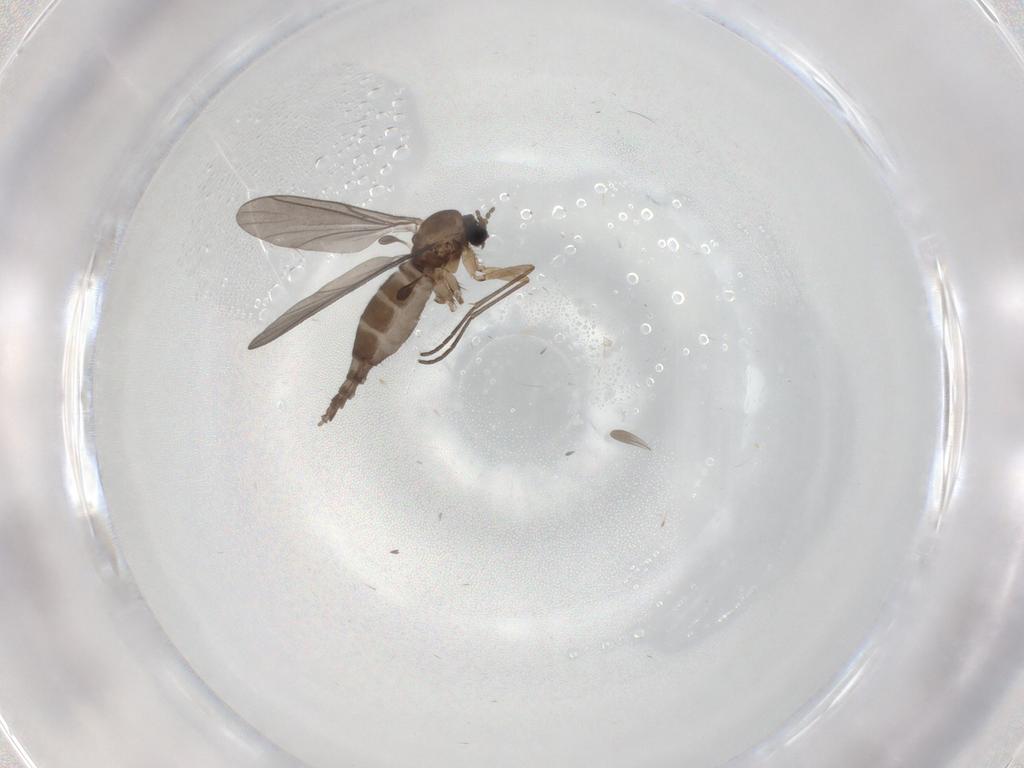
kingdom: Animalia
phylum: Arthropoda
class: Insecta
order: Diptera
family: Sciaridae
